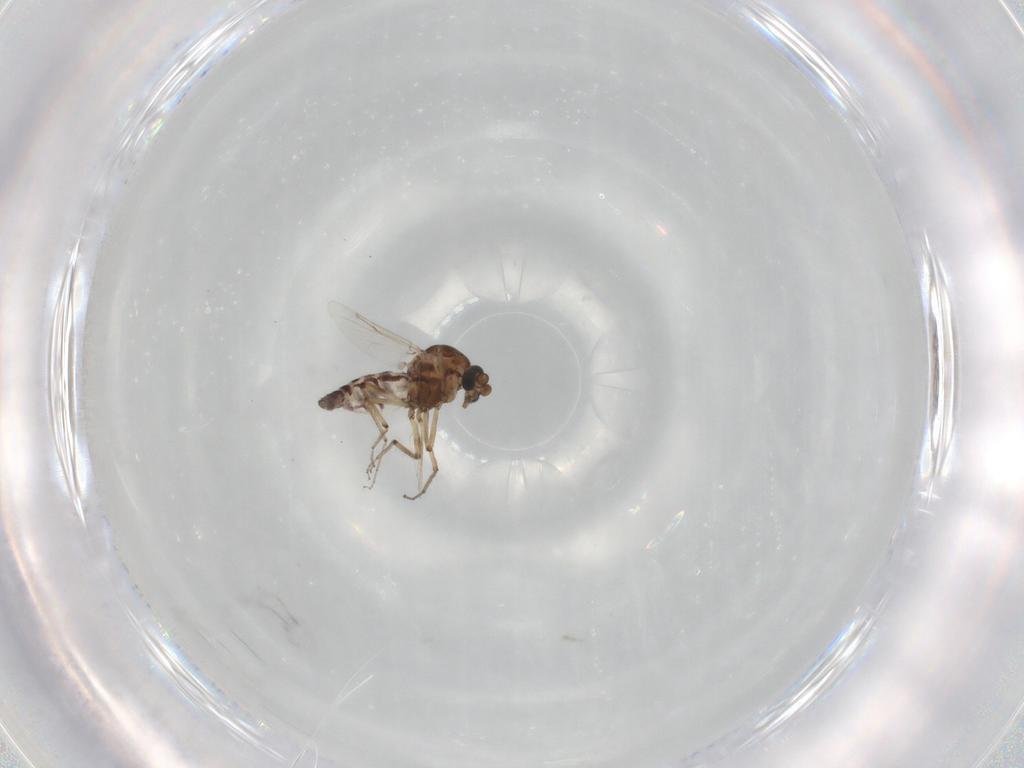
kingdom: Animalia
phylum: Arthropoda
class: Insecta
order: Diptera
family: Ceratopogonidae
